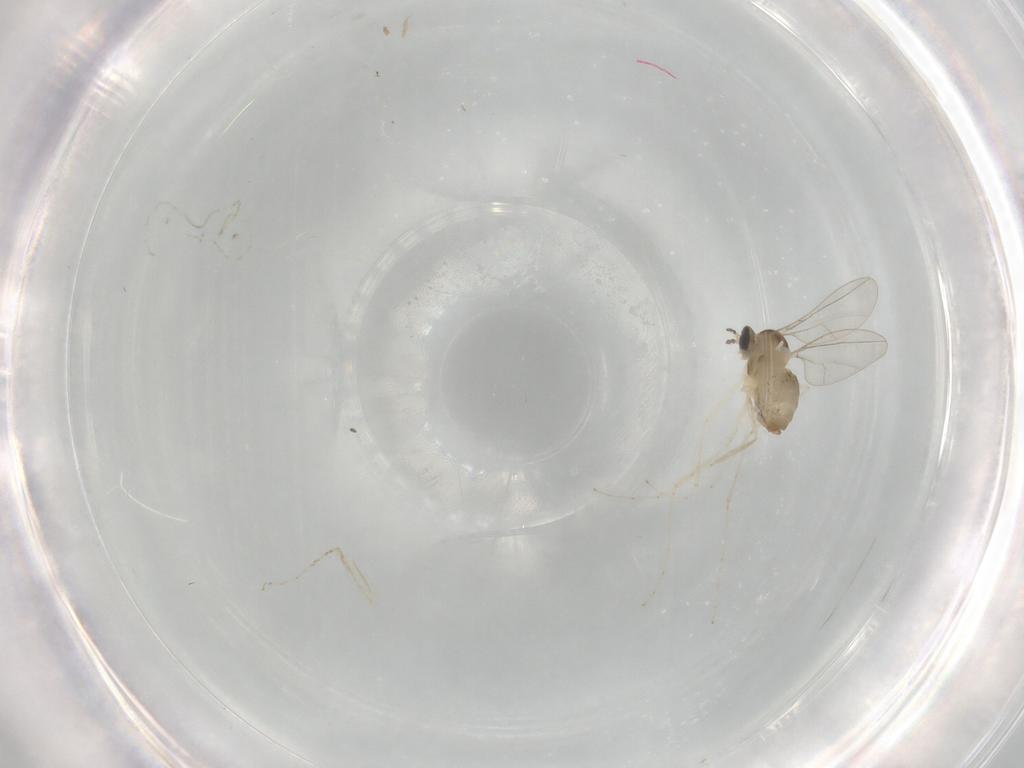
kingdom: Animalia
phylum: Arthropoda
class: Insecta
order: Diptera
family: Cecidomyiidae
